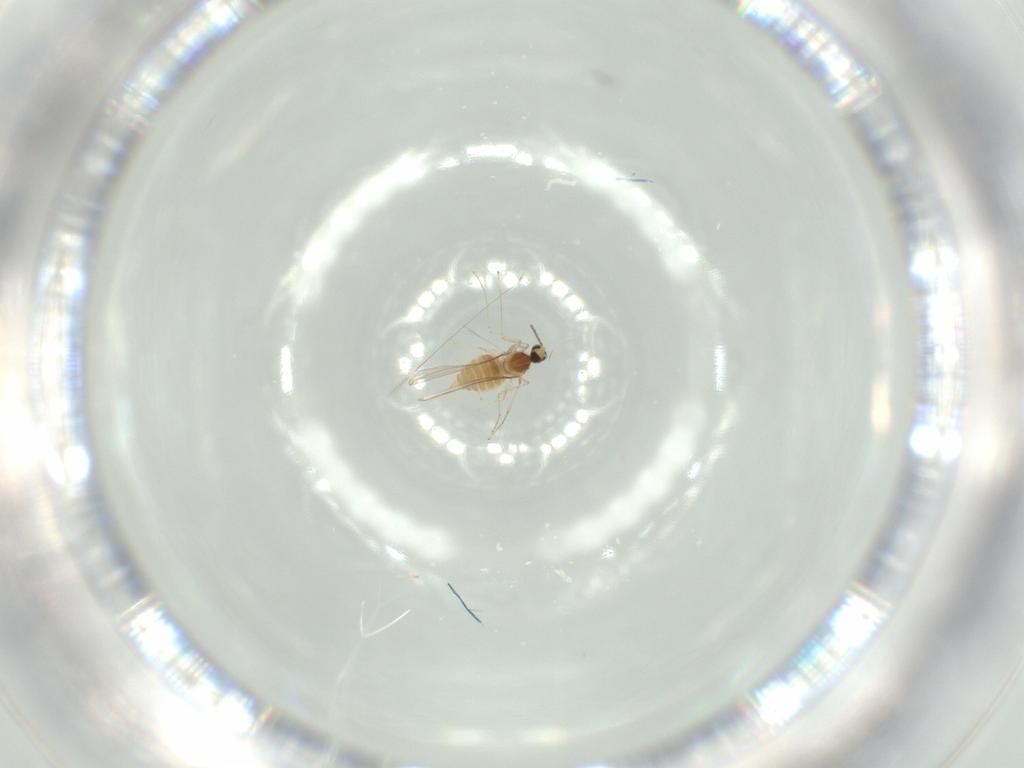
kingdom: Animalia
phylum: Arthropoda
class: Insecta
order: Diptera
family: Cecidomyiidae
